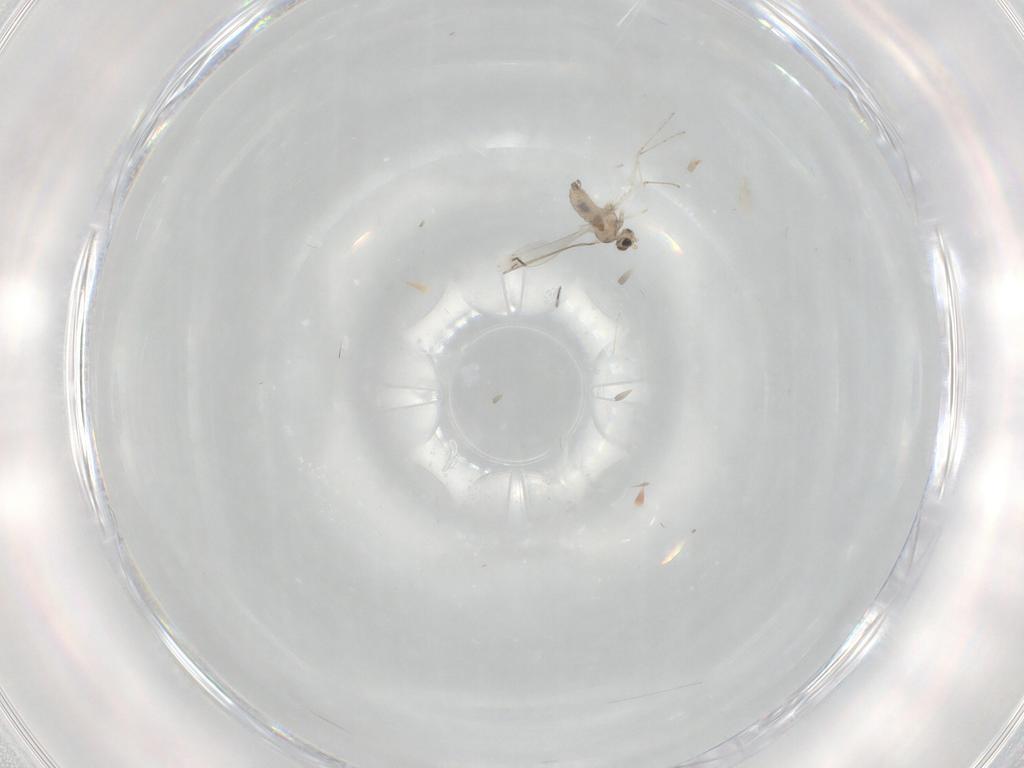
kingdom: Animalia
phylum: Arthropoda
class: Insecta
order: Diptera
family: Cecidomyiidae
